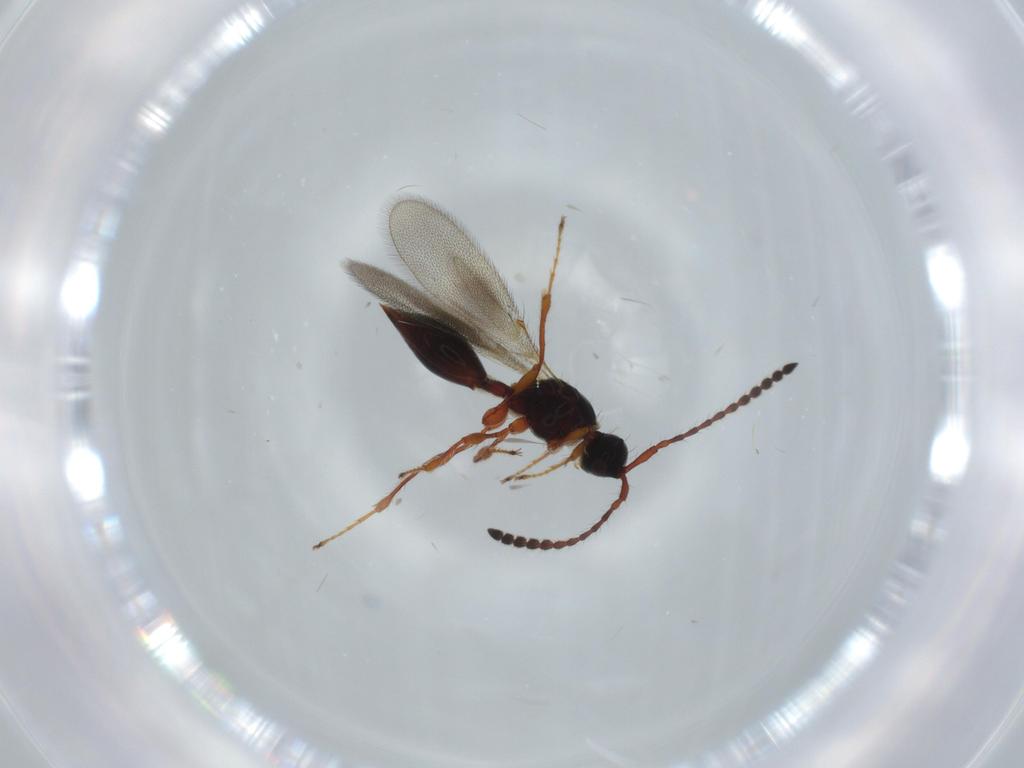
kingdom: Animalia
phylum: Arthropoda
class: Insecta
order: Hymenoptera
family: Diapriidae
